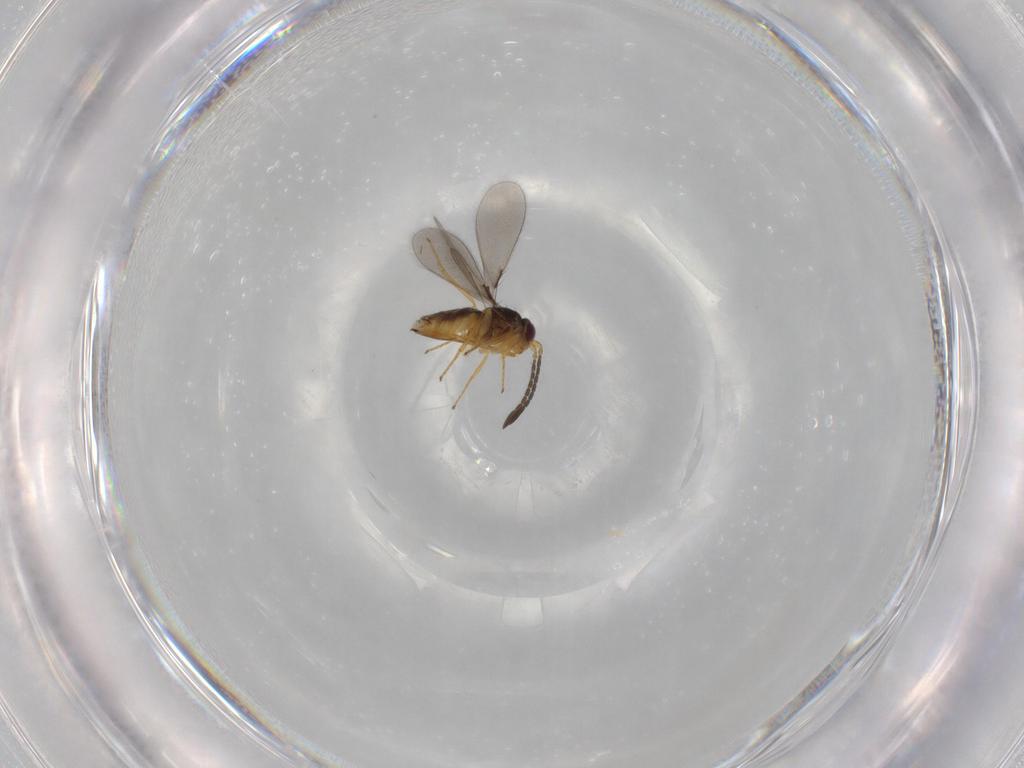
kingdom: Animalia
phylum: Arthropoda
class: Insecta
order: Hymenoptera
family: Mymaridae
